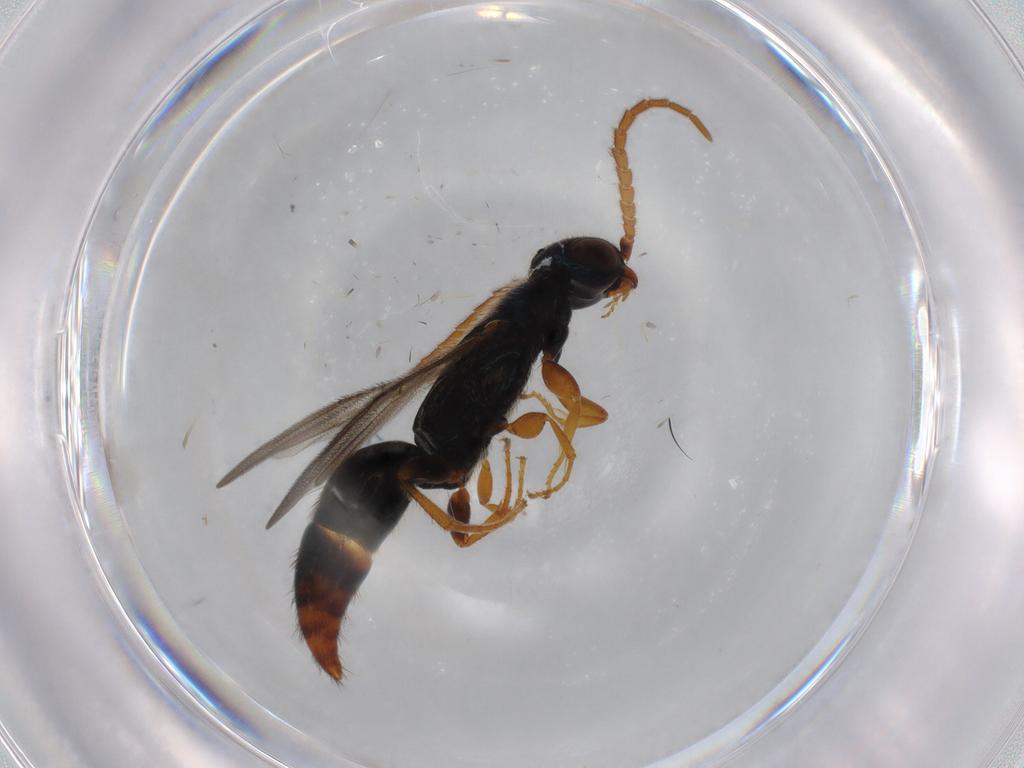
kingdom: Animalia
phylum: Arthropoda
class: Insecta
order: Hymenoptera
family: Bethylidae
